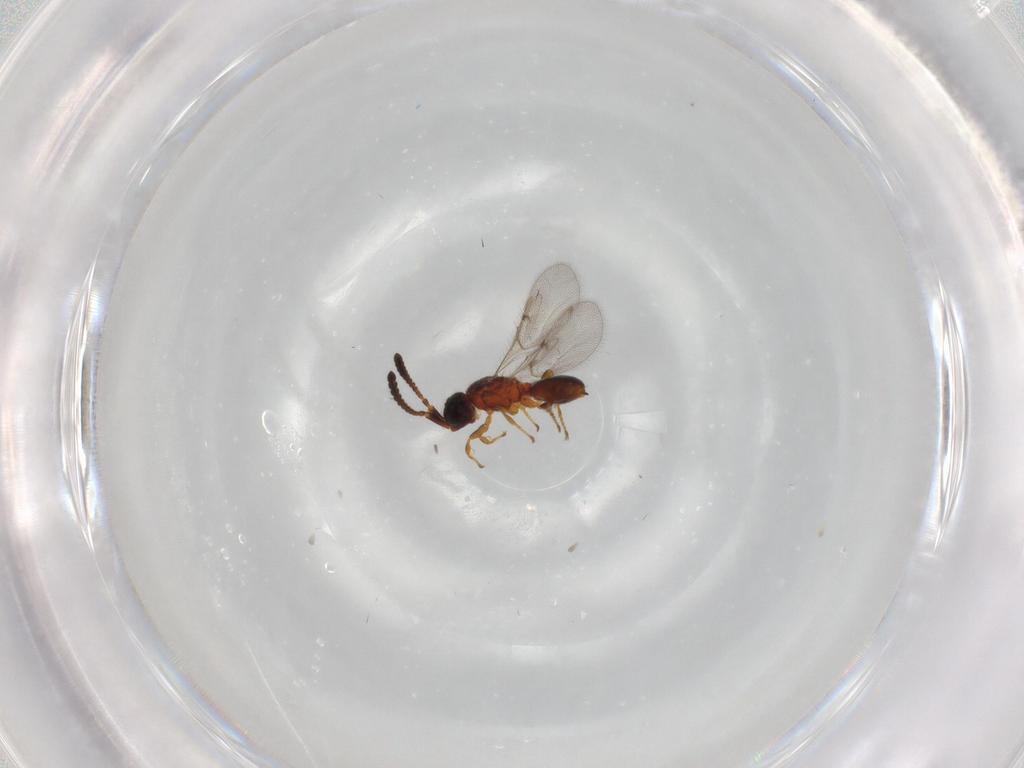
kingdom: Animalia
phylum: Arthropoda
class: Insecta
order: Hymenoptera
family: Diapriidae
